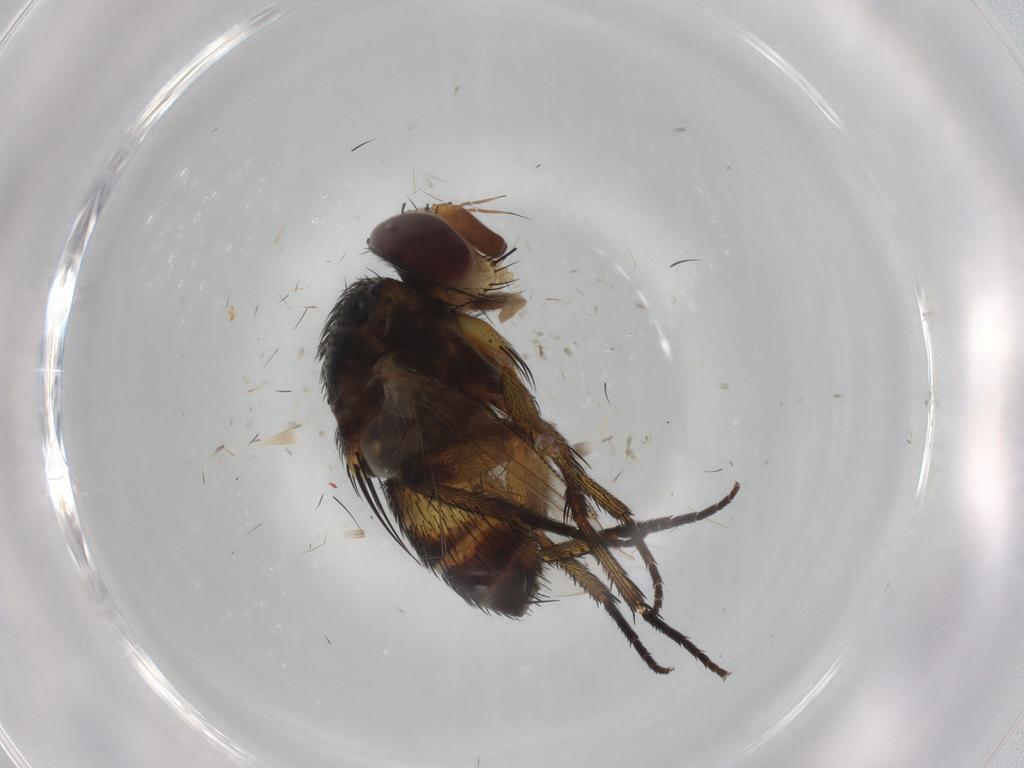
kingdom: Animalia
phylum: Arthropoda
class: Insecta
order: Diptera
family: Tachinidae
